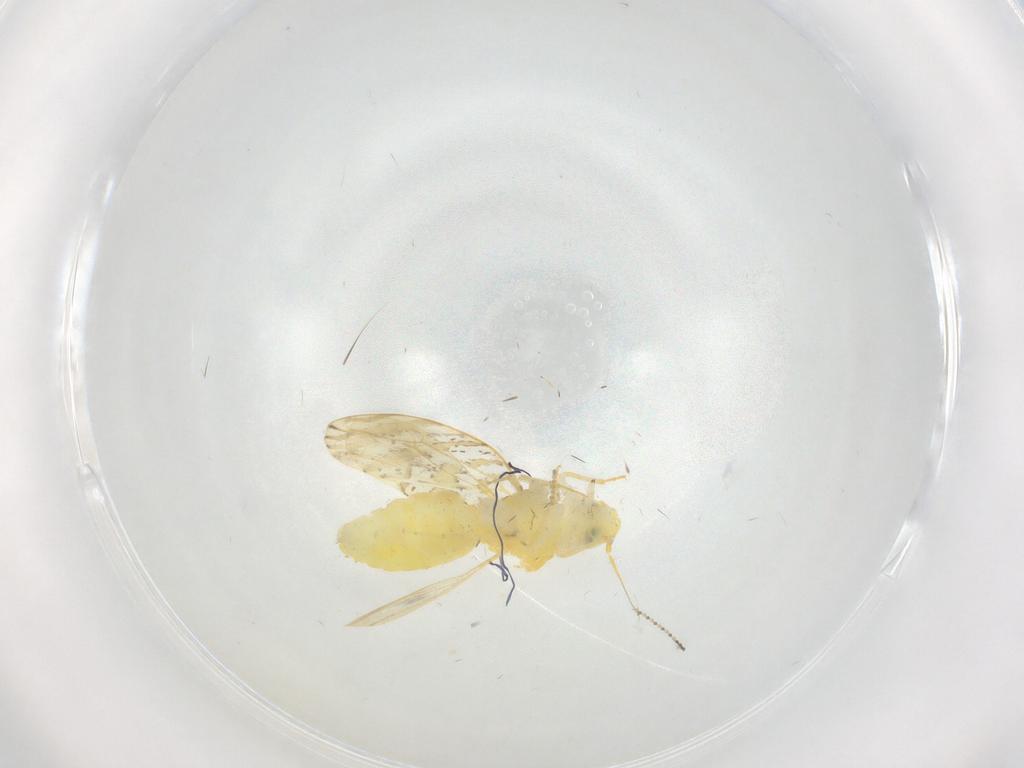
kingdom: Animalia
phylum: Arthropoda
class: Insecta
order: Hemiptera
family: Aleyrodidae
